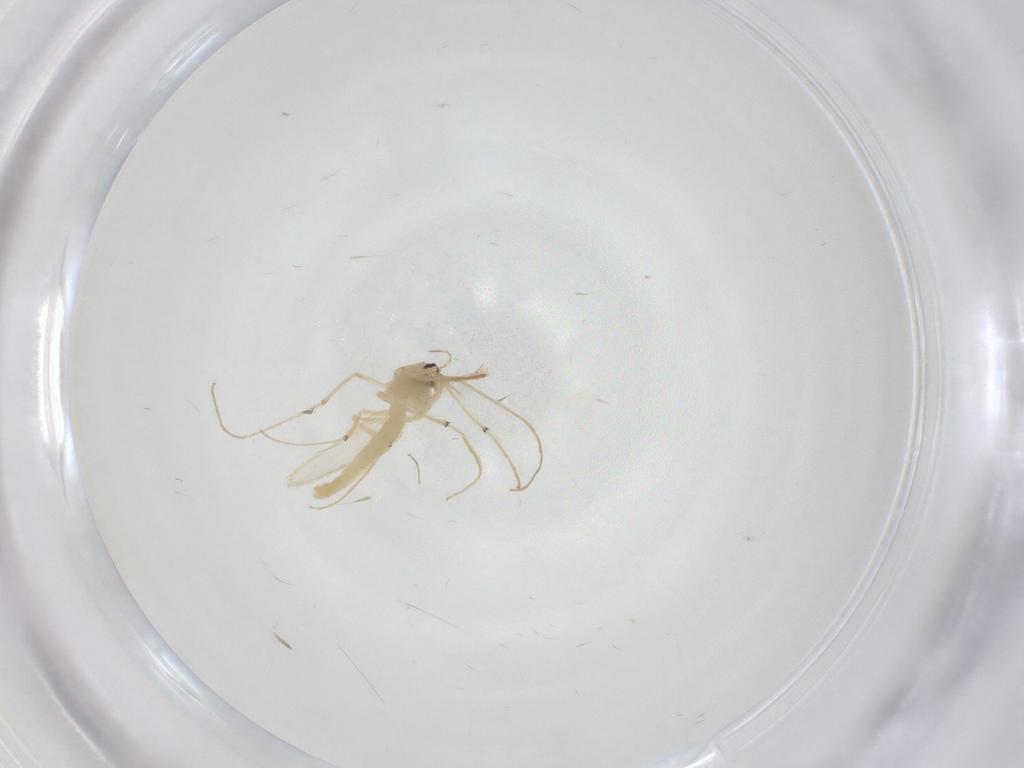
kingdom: Animalia
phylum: Arthropoda
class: Insecta
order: Diptera
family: Chironomidae
